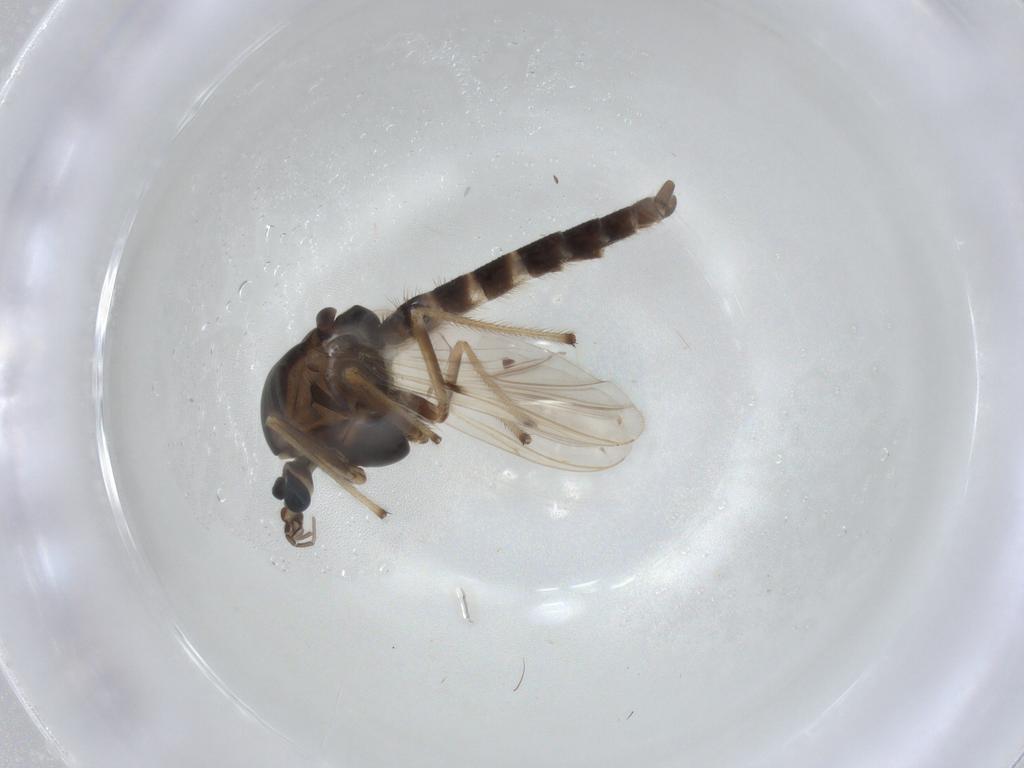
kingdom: Animalia
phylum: Arthropoda
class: Insecta
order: Diptera
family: Chironomidae
